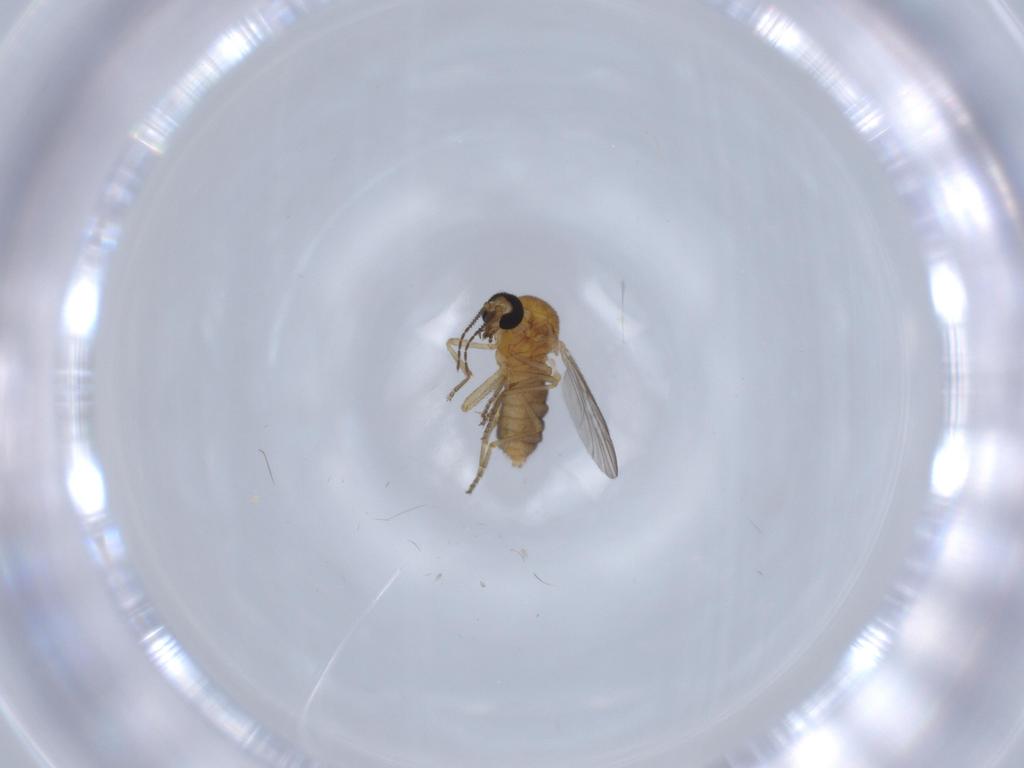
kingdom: Animalia
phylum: Arthropoda
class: Insecta
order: Diptera
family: Ceratopogonidae
